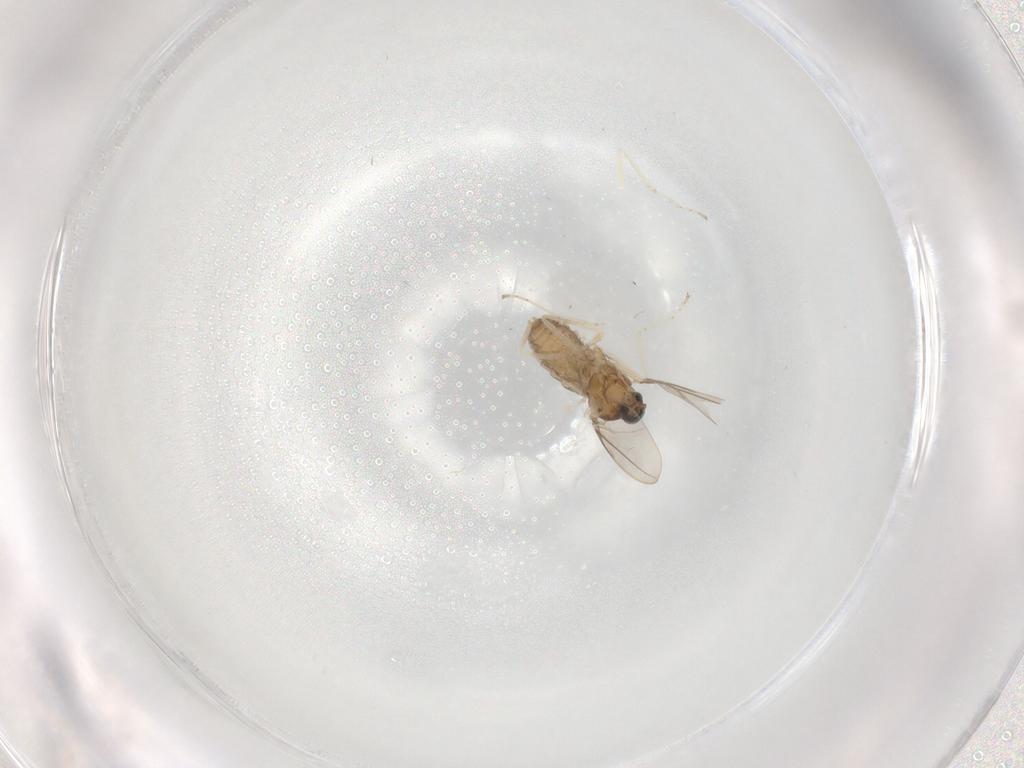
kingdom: Animalia
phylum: Arthropoda
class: Insecta
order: Diptera
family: Cecidomyiidae
